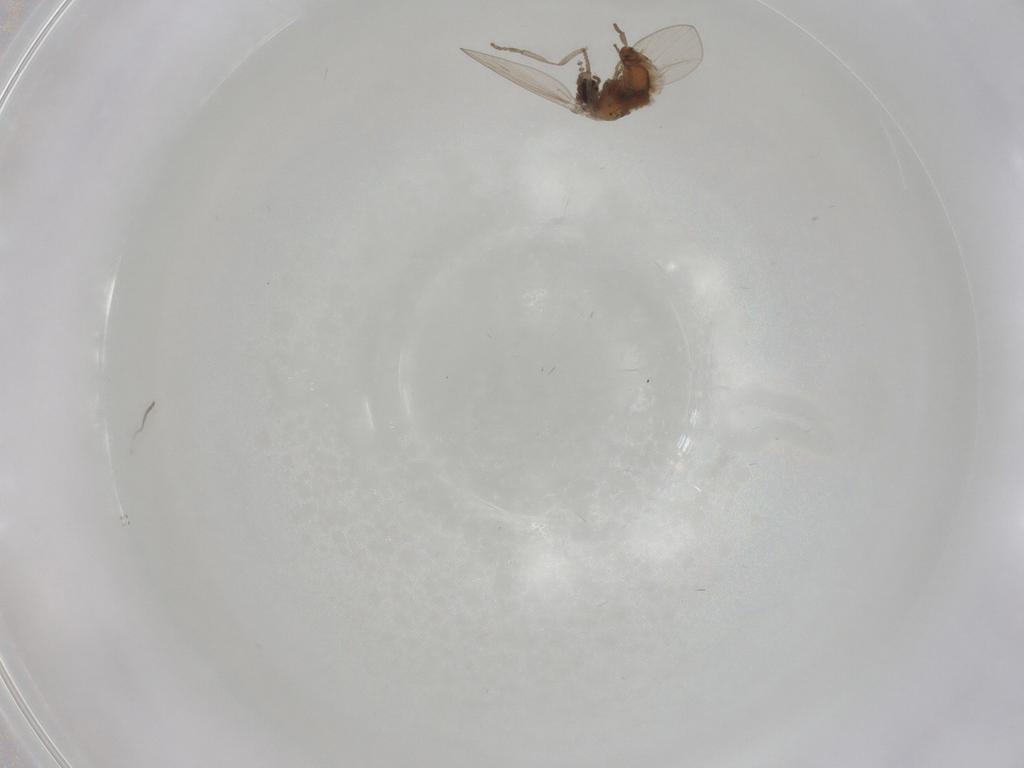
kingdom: Animalia
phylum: Arthropoda
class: Insecta
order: Diptera
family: Psychodidae
